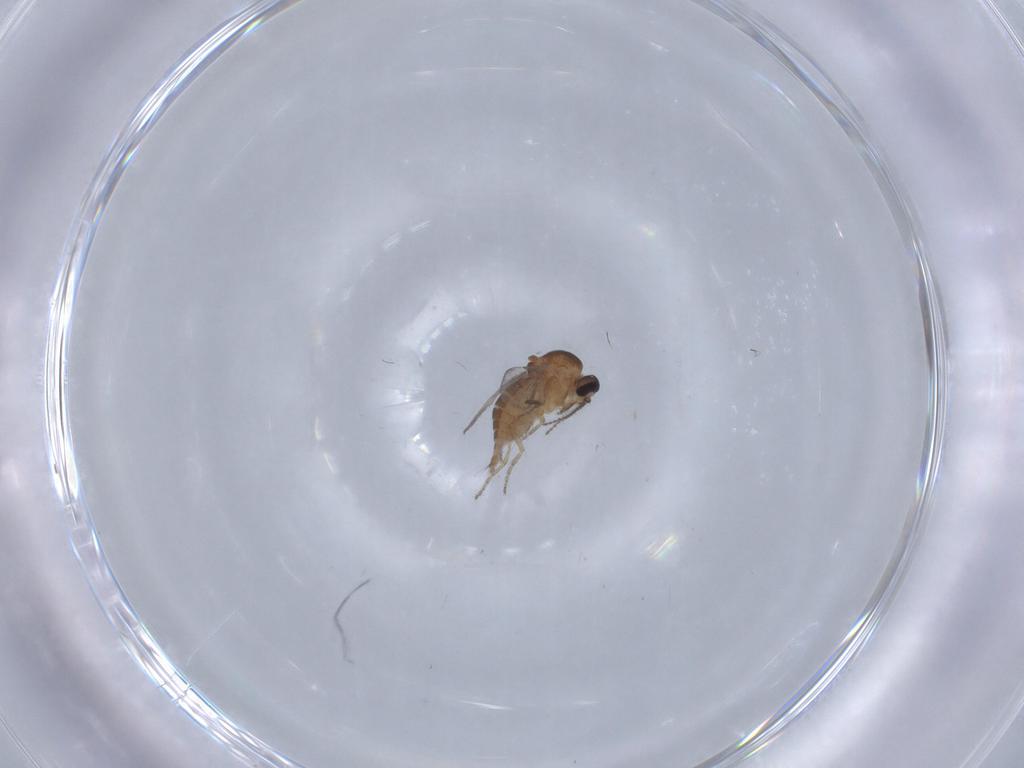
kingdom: Animalia
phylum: Arthropoda
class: Insecta
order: Diptera
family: Ceratopogonidae
